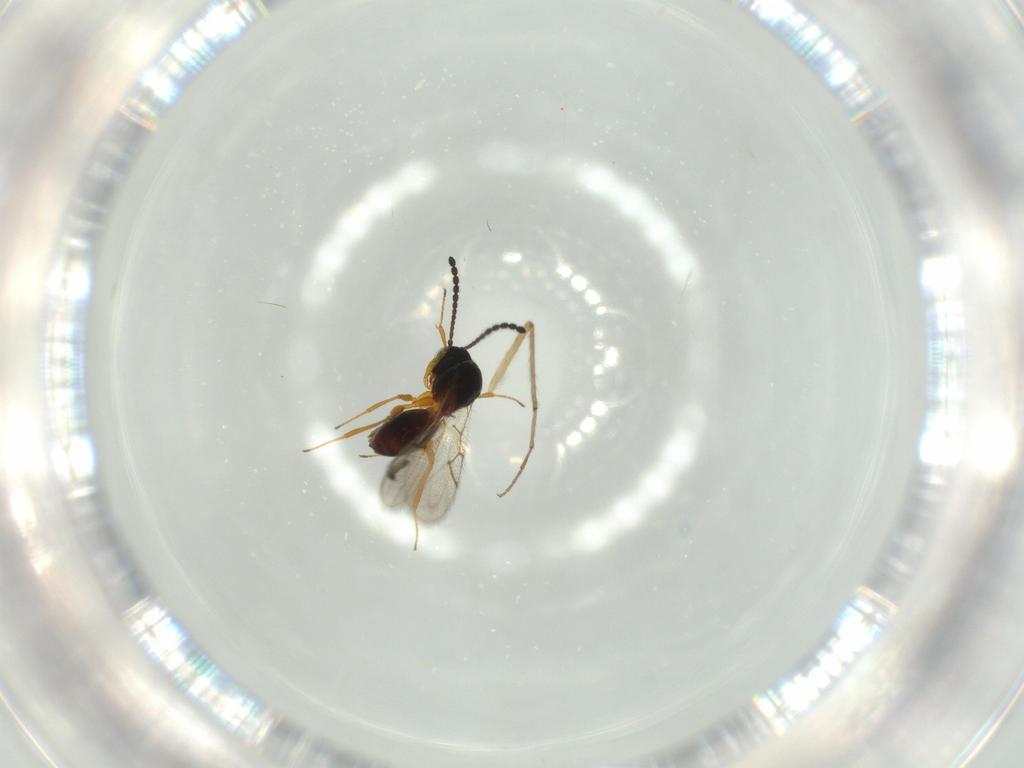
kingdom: Animalia
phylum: Arthropoda
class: Insecta
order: Hymenoptera
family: Figitidae
